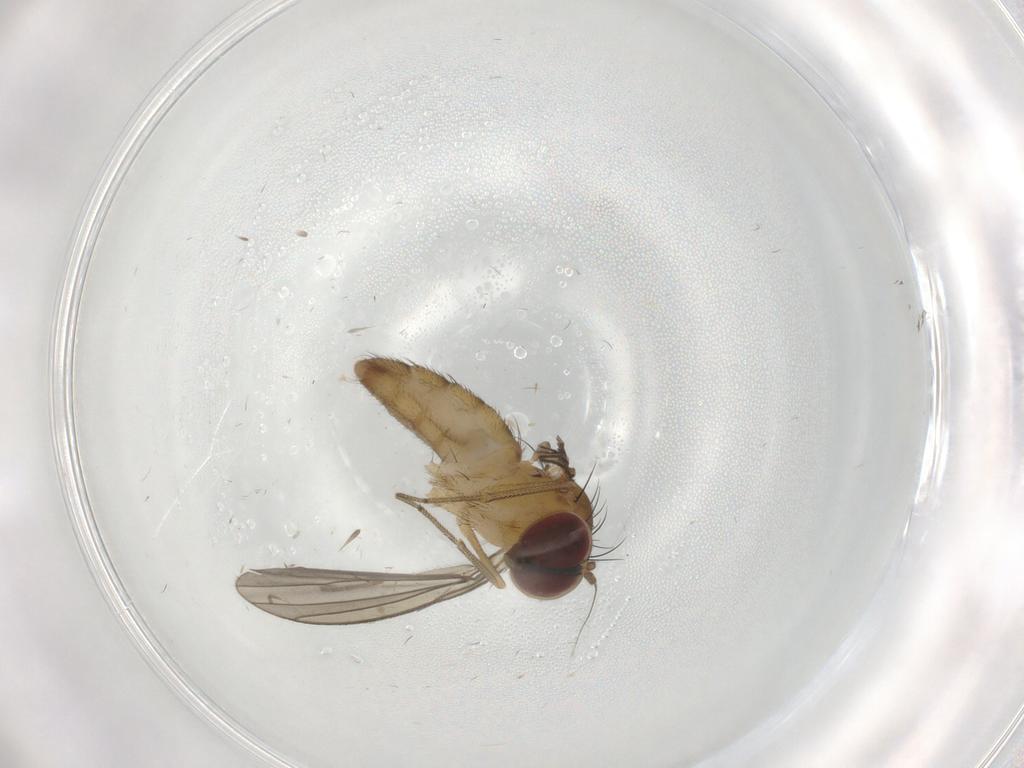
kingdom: Animalia
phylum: Arthropoda
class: Insecta
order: Diptera
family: Dolichopodidae
